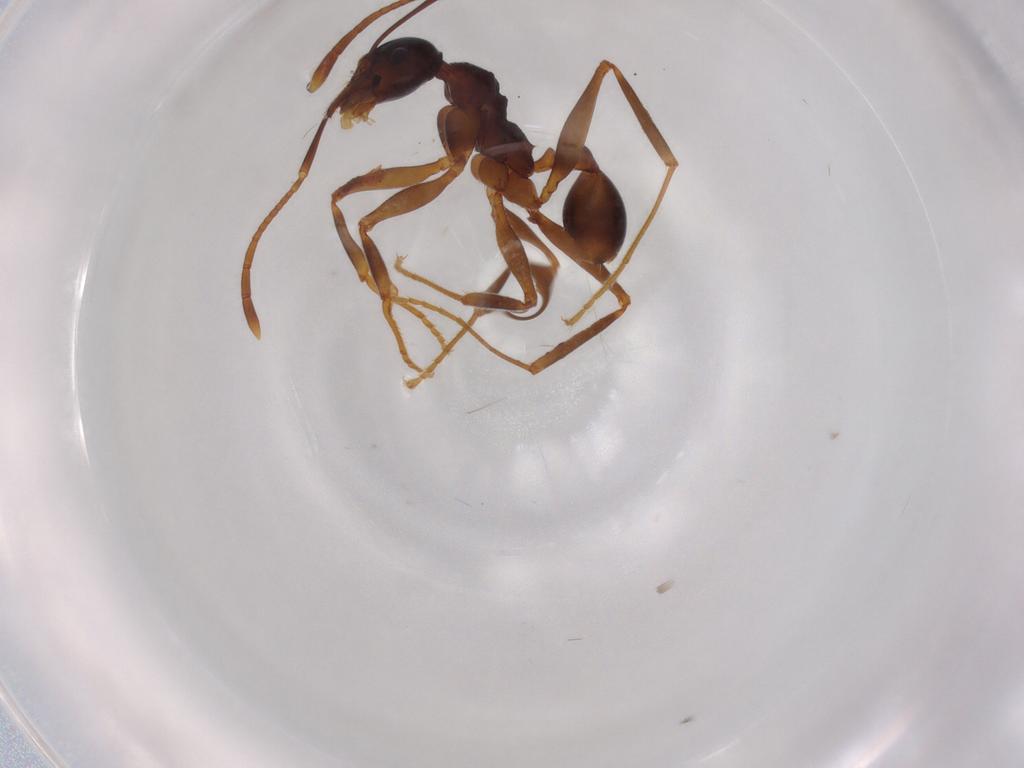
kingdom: Animalia
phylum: Arthropoda
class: Insecta
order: Hymenoptera
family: Formicidae
